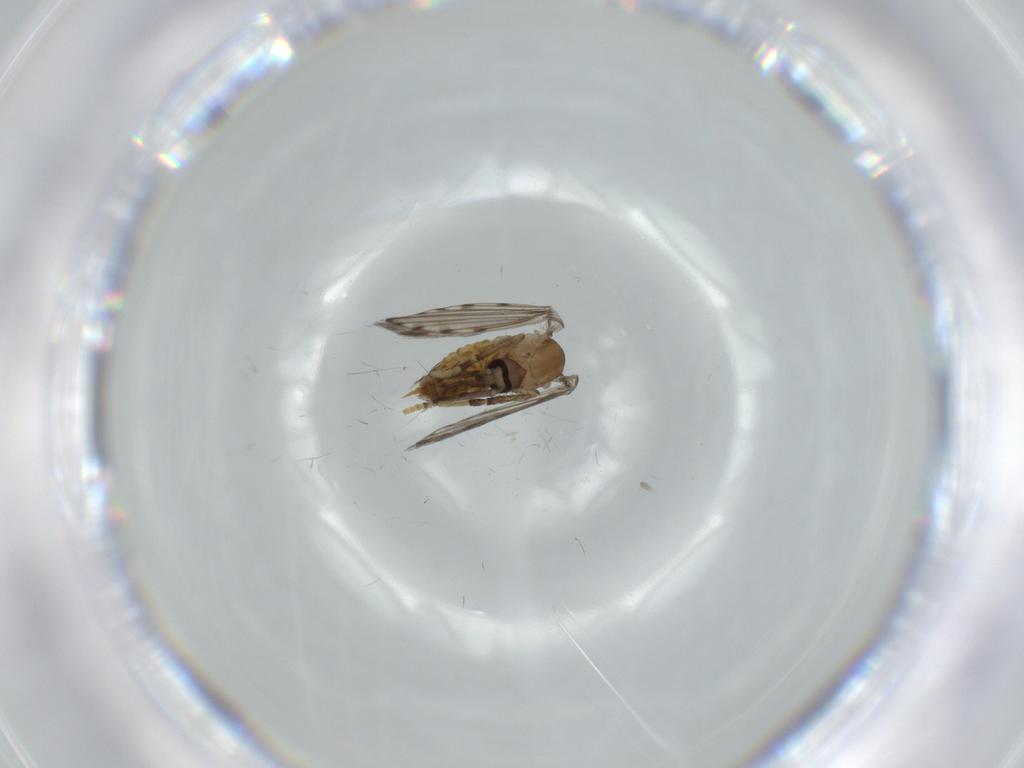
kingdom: Animalia
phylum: Arthropoda
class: Insecta
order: Diptera
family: Psychodidae
